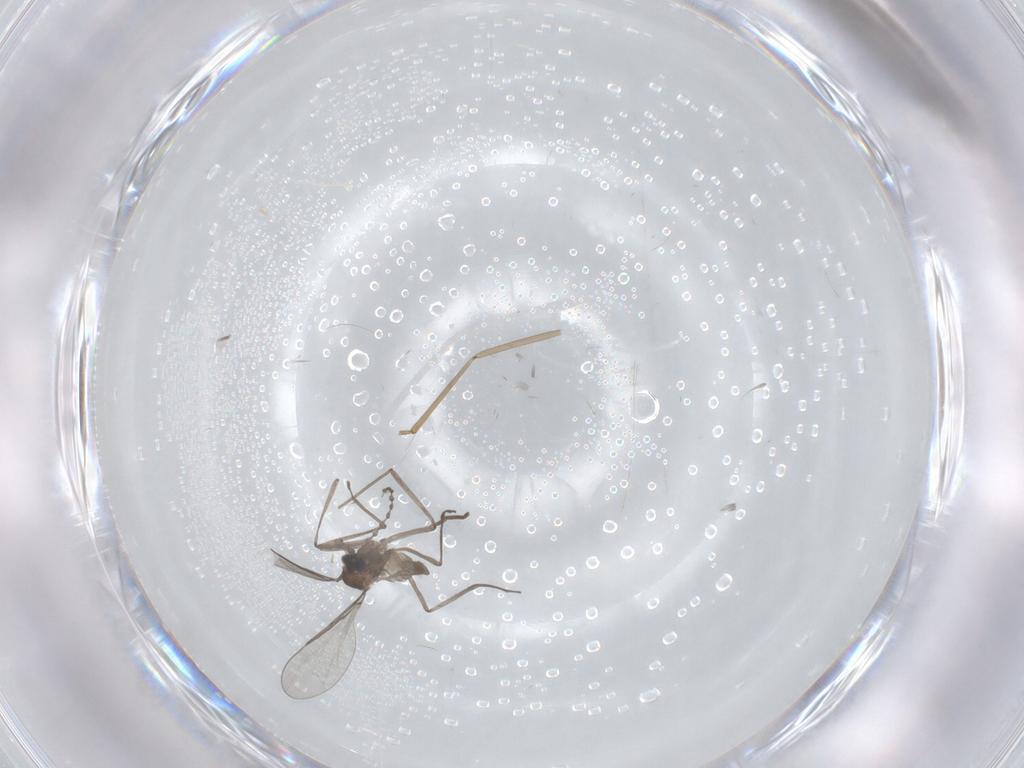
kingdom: Animalia
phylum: Arthropoda
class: Insecta
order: Diptera
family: Cecidomyiidae
